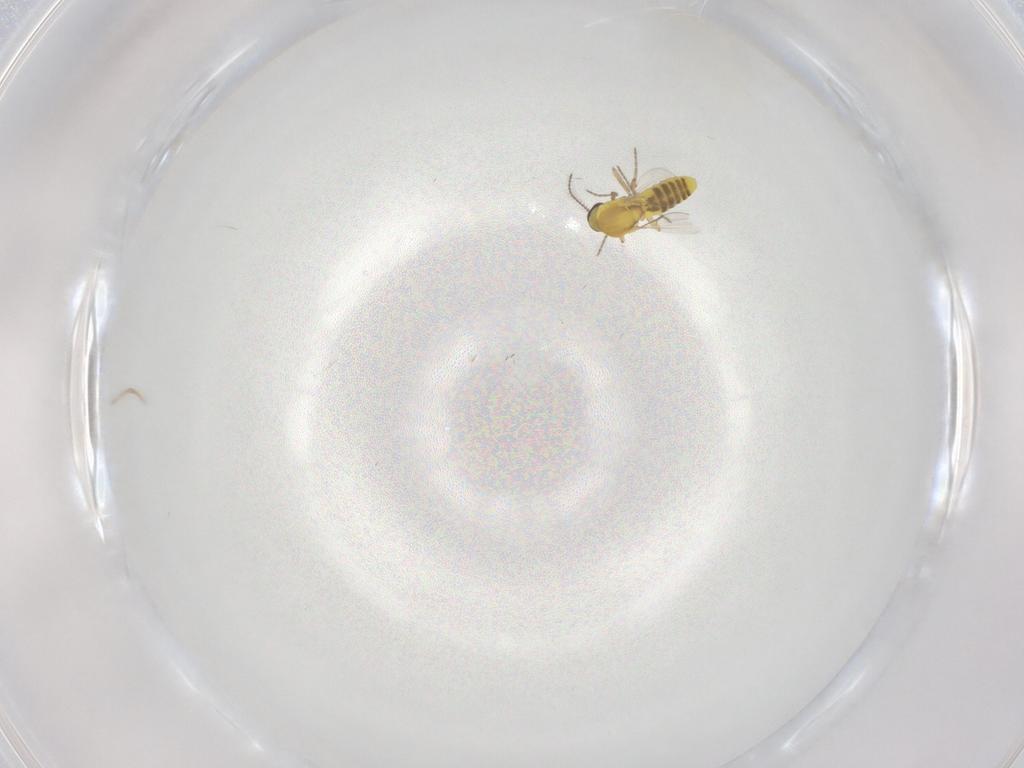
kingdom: Animalia
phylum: Arthropoda
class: Insecta
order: Diptera
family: Ceratopogonidae
